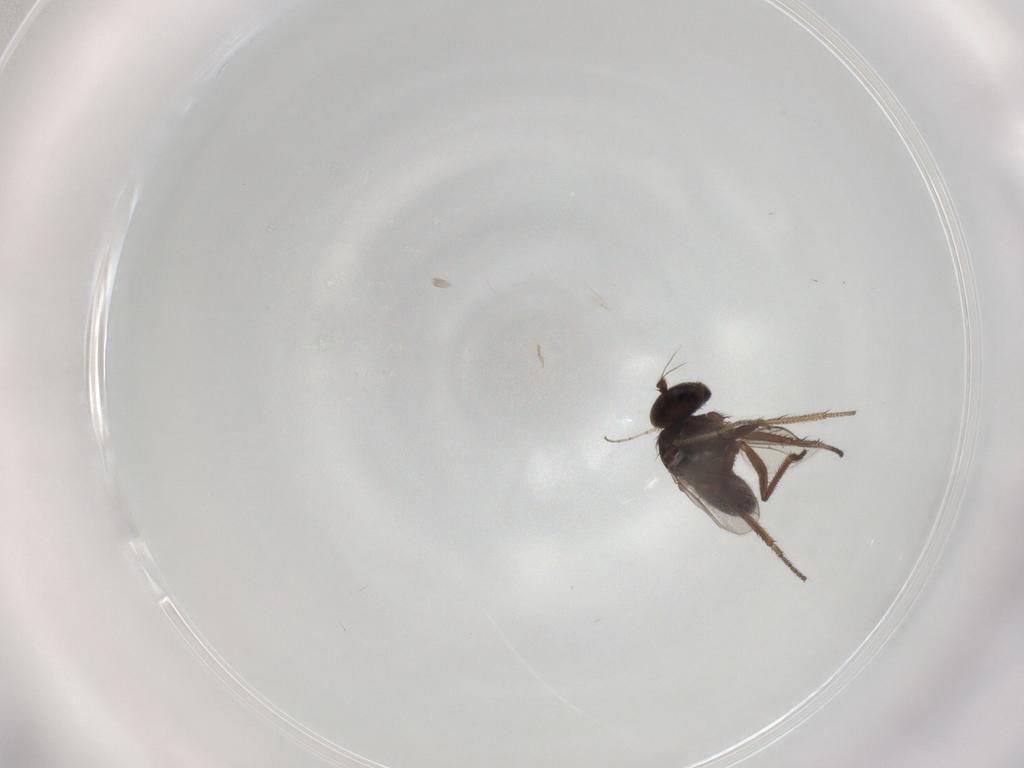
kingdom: Animalia
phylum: Arthropoda
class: Insecta
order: Diptera
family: Dolichopodidae
